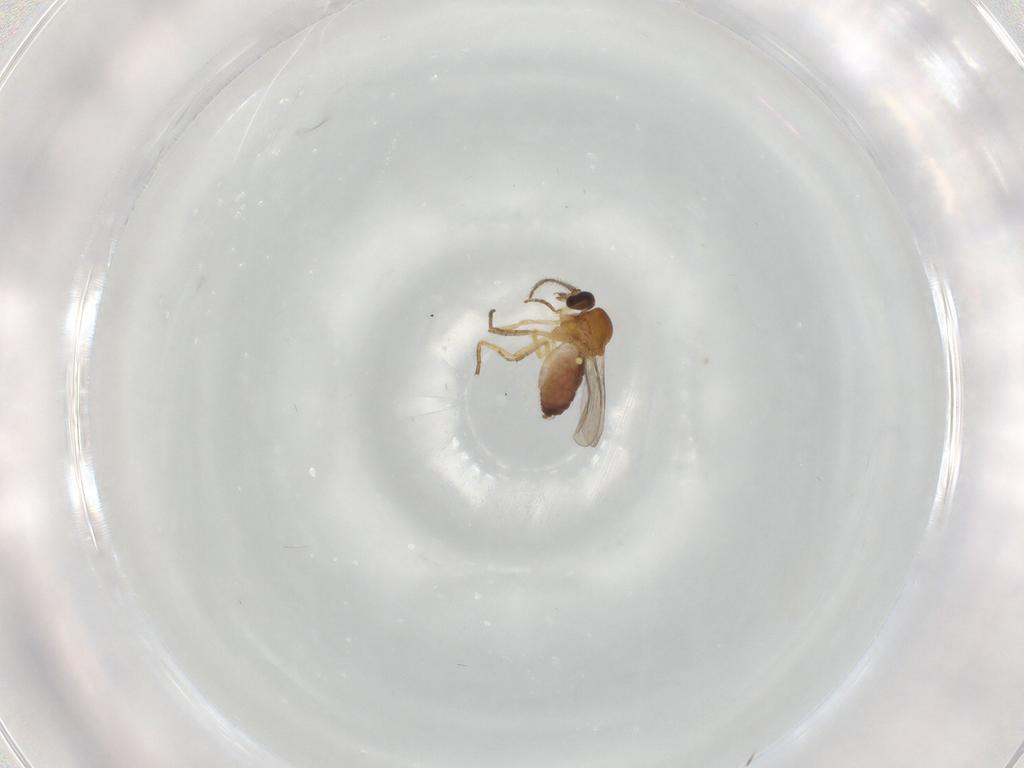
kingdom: Animalia
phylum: Arthropoda
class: Insecta
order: Diptera
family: Ceratopogonidae
